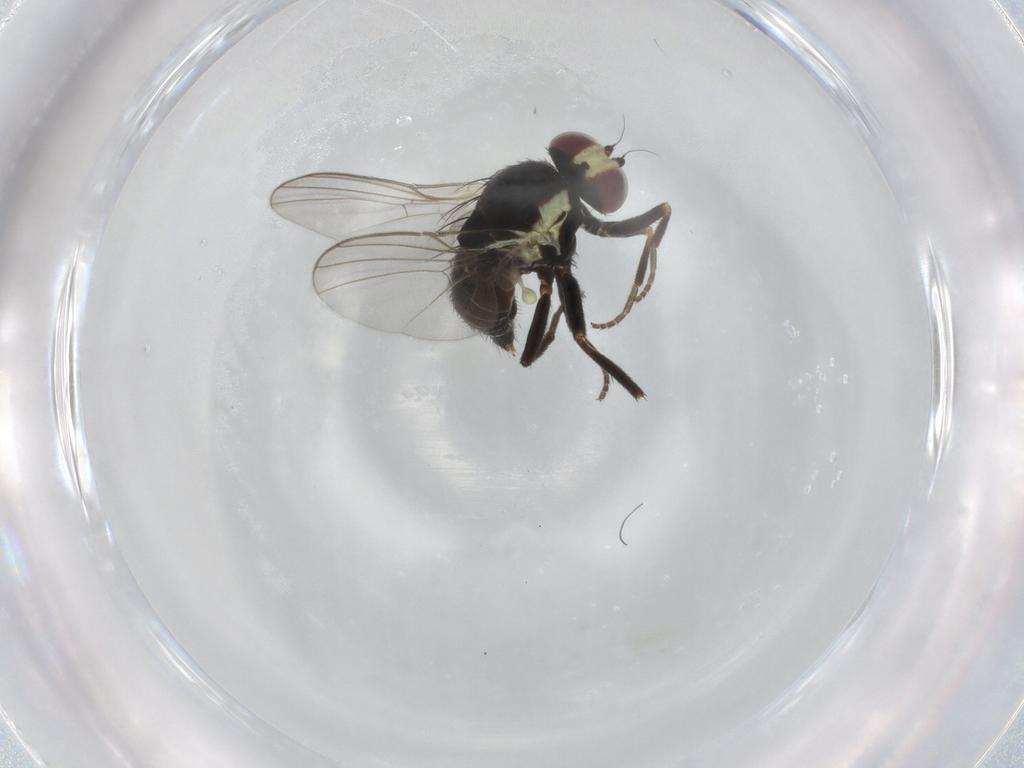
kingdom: Animalia
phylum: Arthropoda
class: Insecta
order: Diptera
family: Agromyzidae
